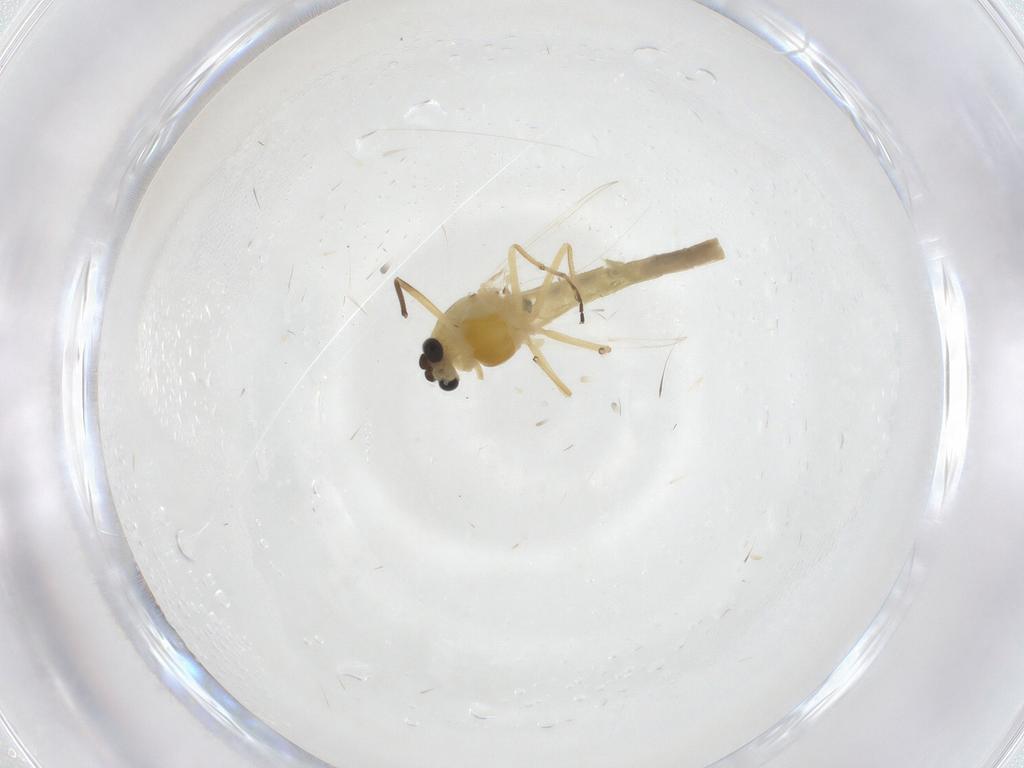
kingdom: Animalia
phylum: Arthropoda
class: Insecta
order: Diptera
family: Chironomidae
